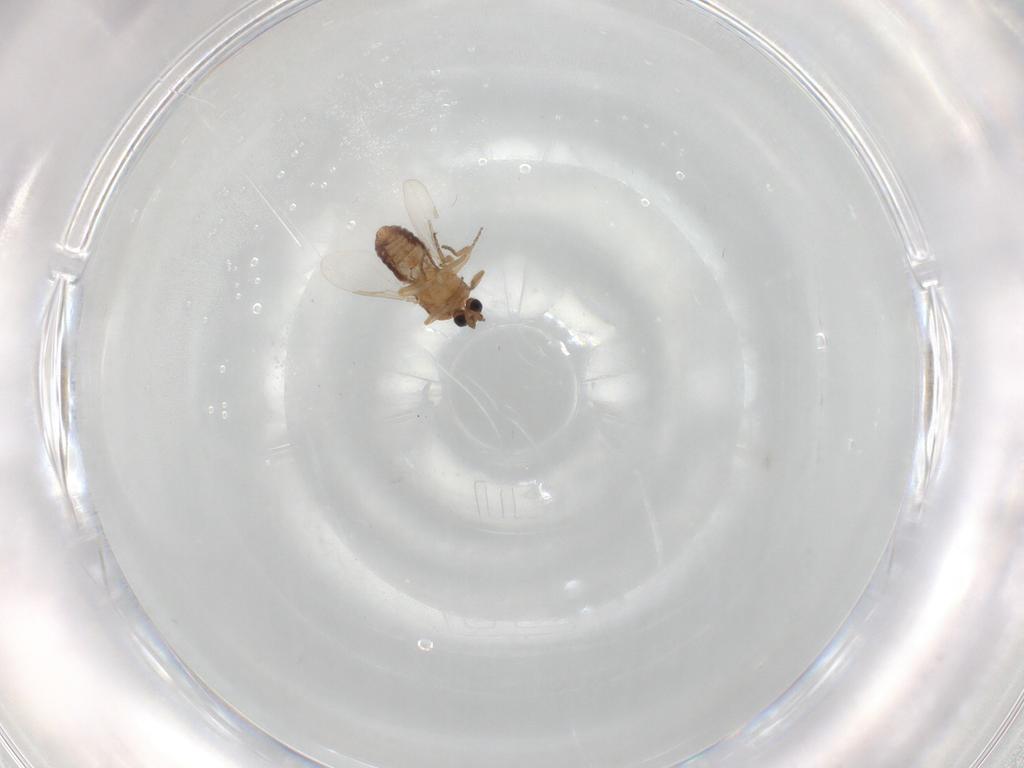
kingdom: Animalia
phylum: Arthropoda
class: Insecta
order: Diptera
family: Ceratopogonidae
